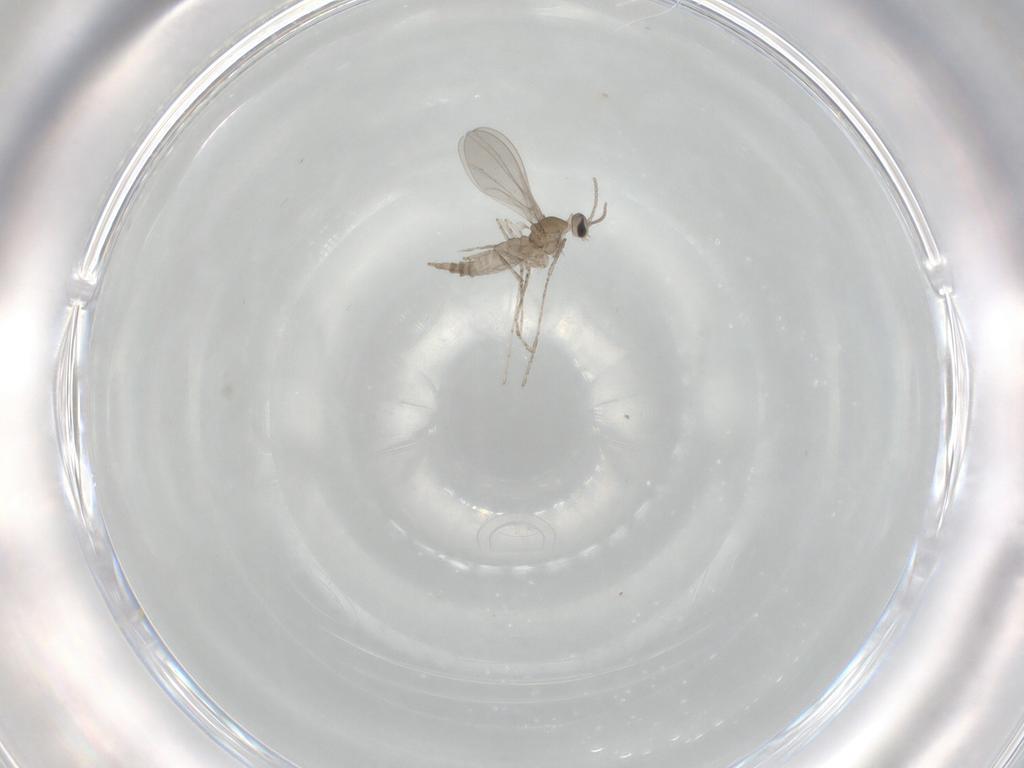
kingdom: Animalia
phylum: Arthropoda
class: Insecta
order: Diptera
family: Cecidomyiidae
